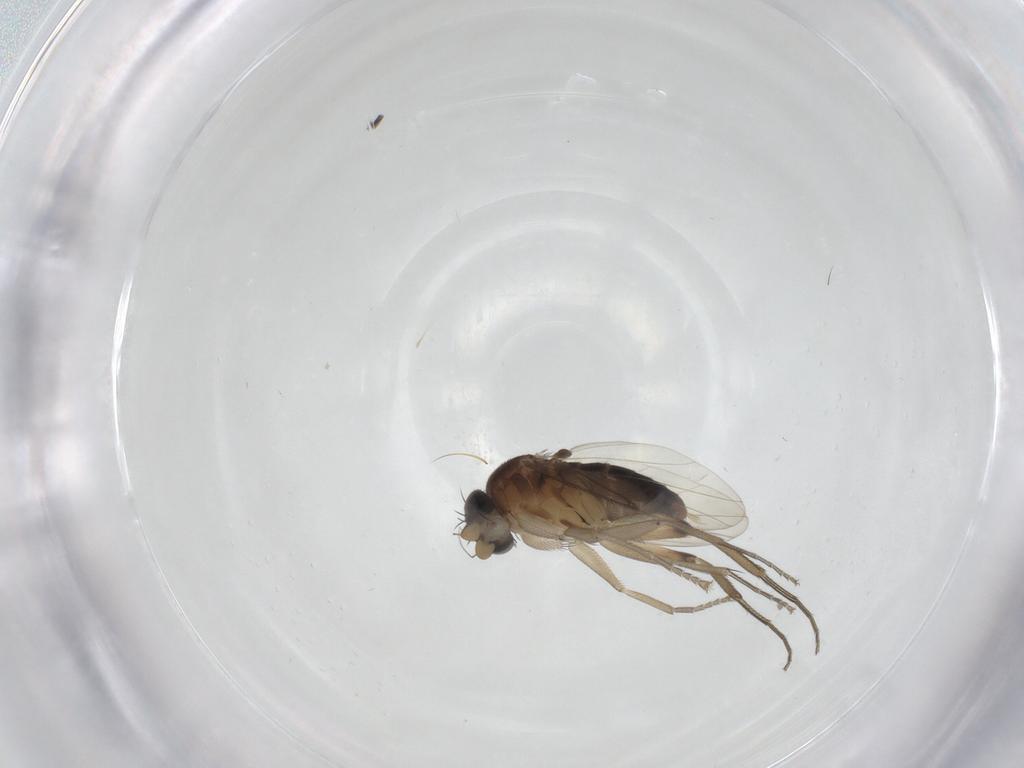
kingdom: Animalia
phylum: Arthropoda
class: Insecta
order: Diptera
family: Phoridae
